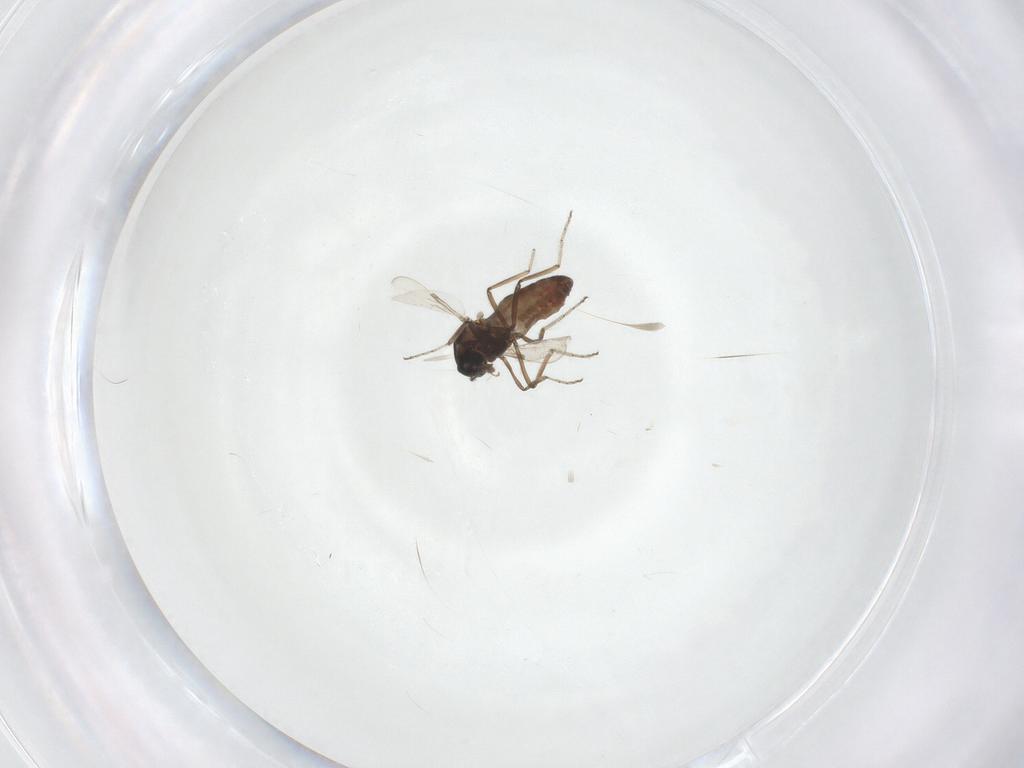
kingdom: Animalia
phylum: Arthropoda
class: Insecta
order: Diptera
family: Ceratopogonidae
